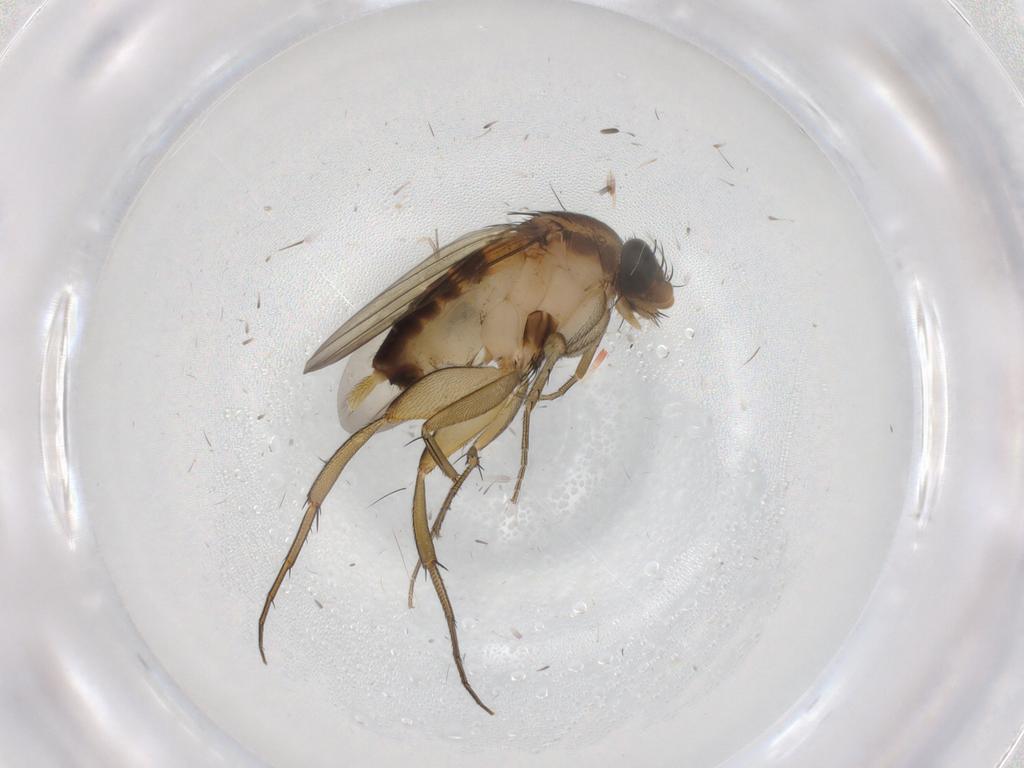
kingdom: Animalia
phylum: Arthropoda
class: Insecta
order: Diptera
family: Phoridae
